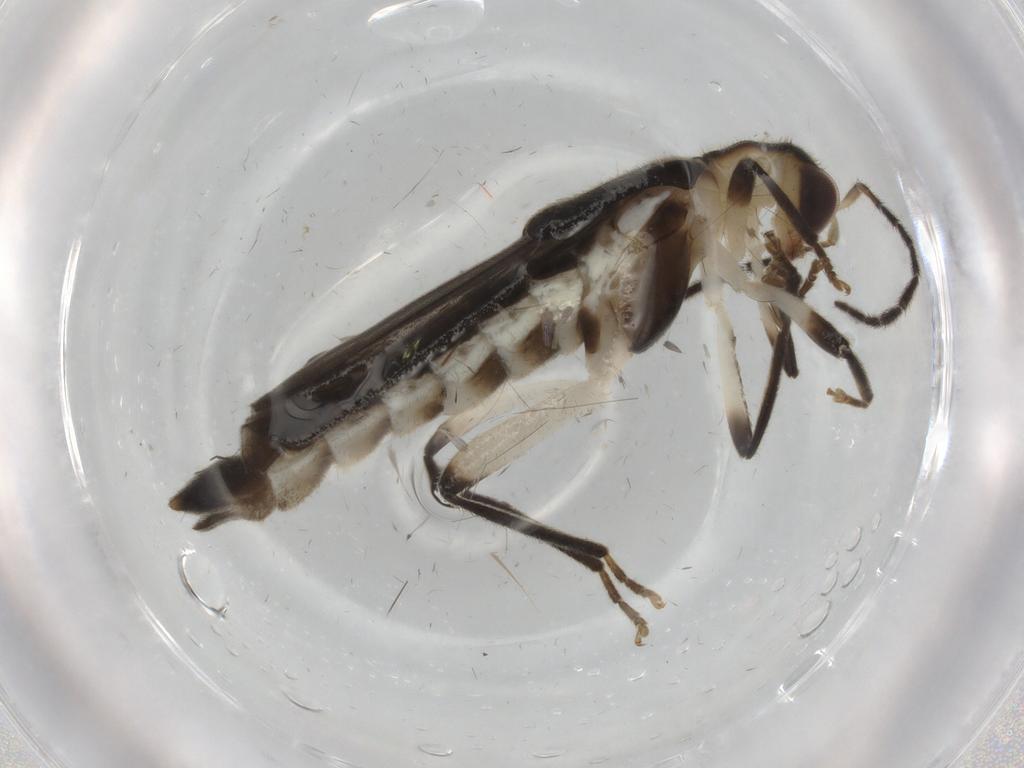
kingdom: Animalia
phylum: Arthropoda
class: Insecta
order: Coleoptera
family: Cantharidae
